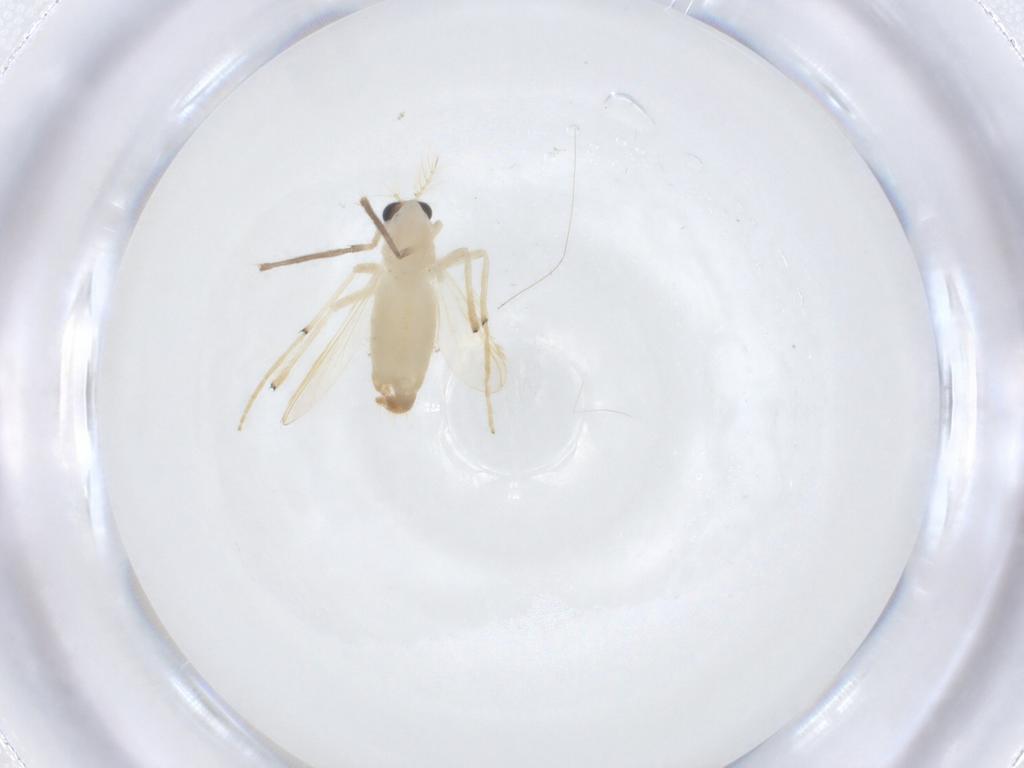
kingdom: Animalia
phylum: Arthropoda
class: Insecta
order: Diptera
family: Chironomidae
